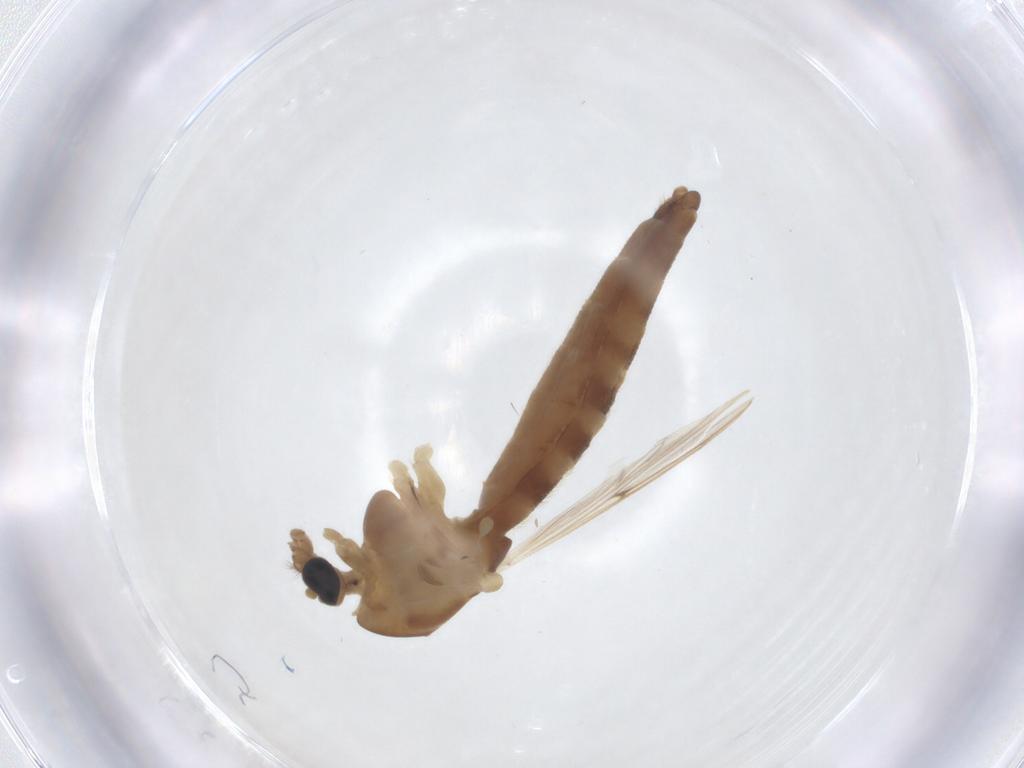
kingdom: Animalia
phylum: Arthropoda
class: Insecta
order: Diptera
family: Chironomidae
